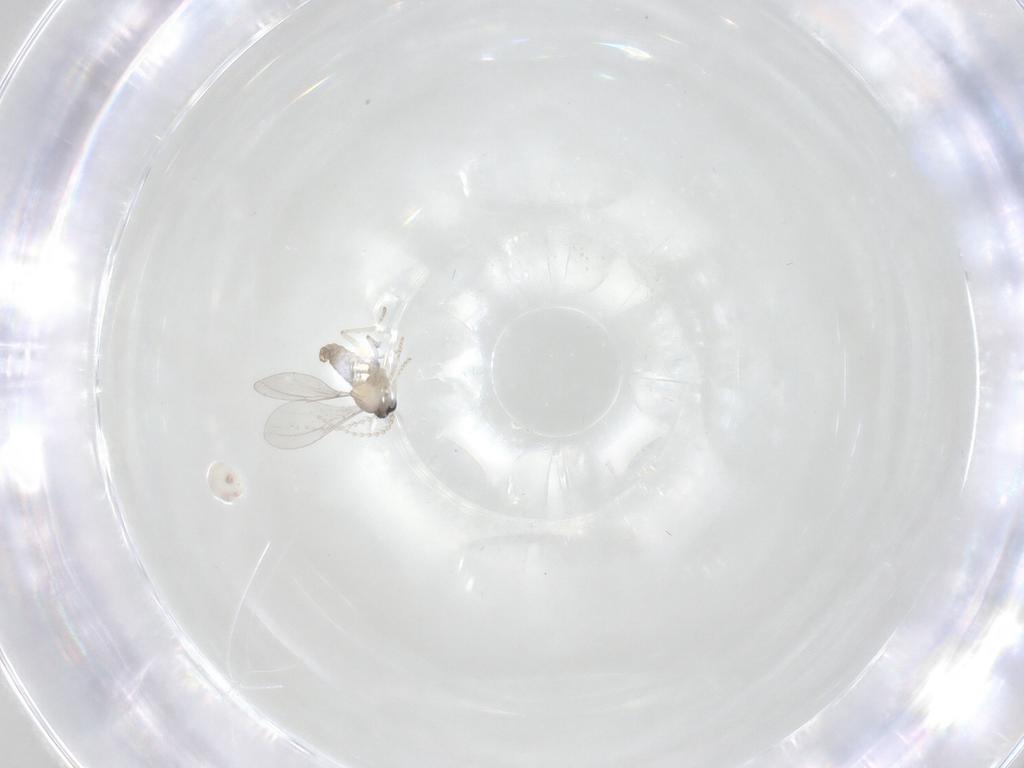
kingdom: Animalia
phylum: Arthropoda
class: Insecta
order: Diptera
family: Cecidomyiidae
